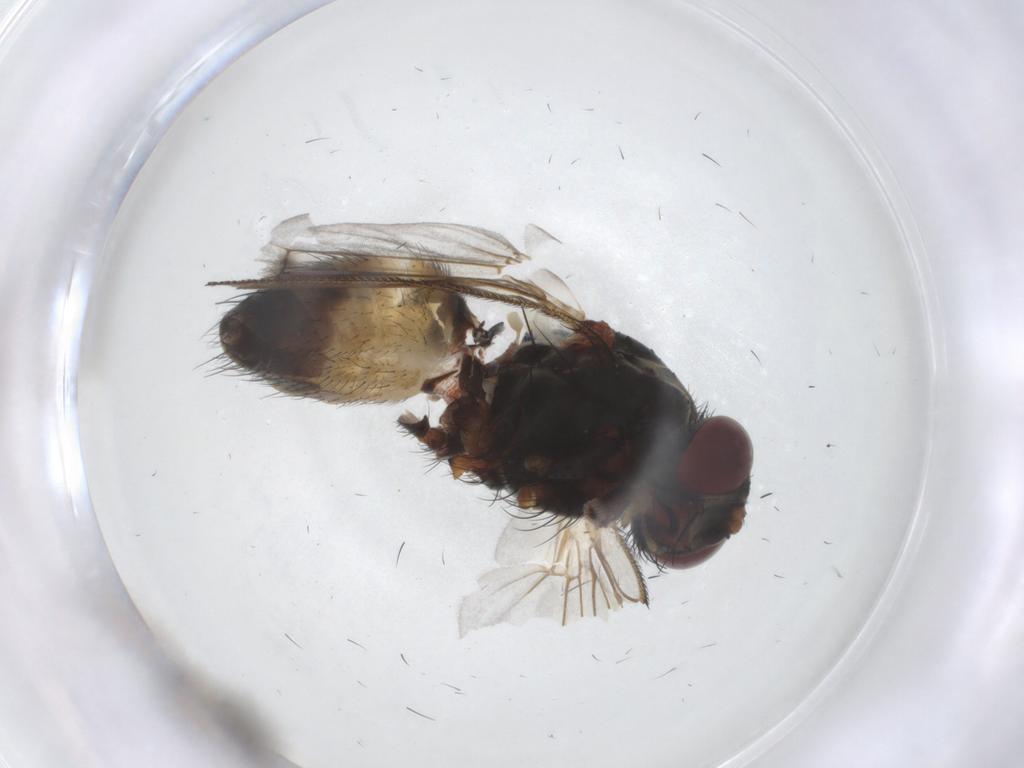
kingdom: Animalia
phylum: Arthropoda
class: Insecta
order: Diptera
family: Muscidae
